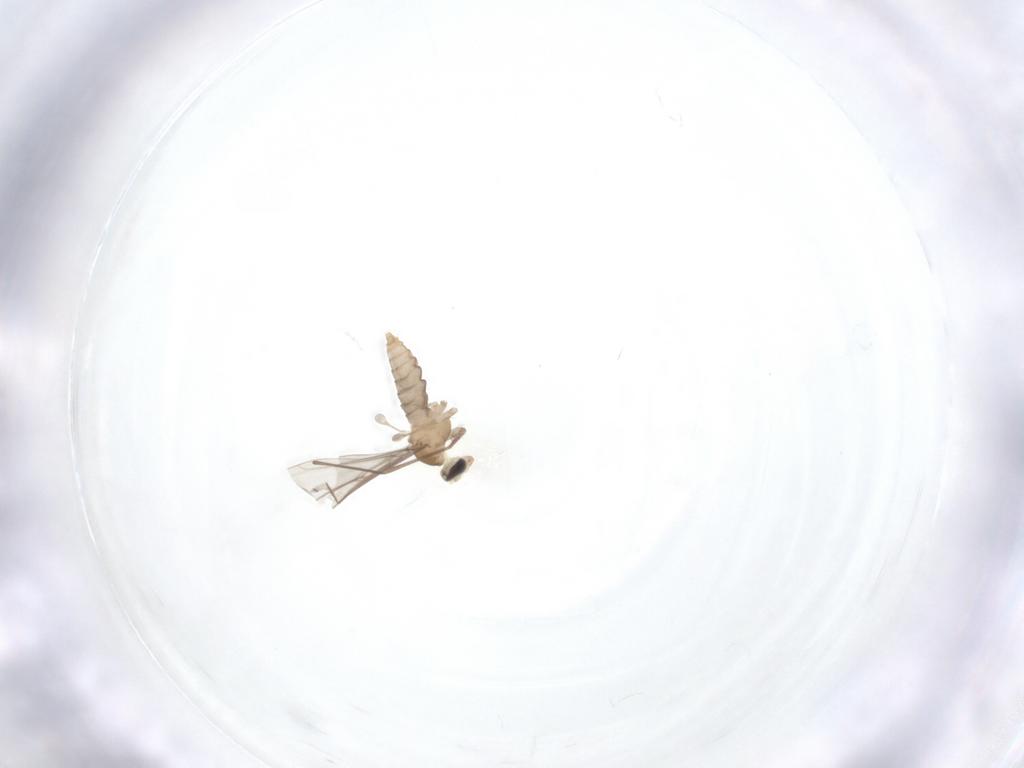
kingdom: Animalia
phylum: Arthropoda
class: Insecta
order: Diptera
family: Cecidomyiidae
